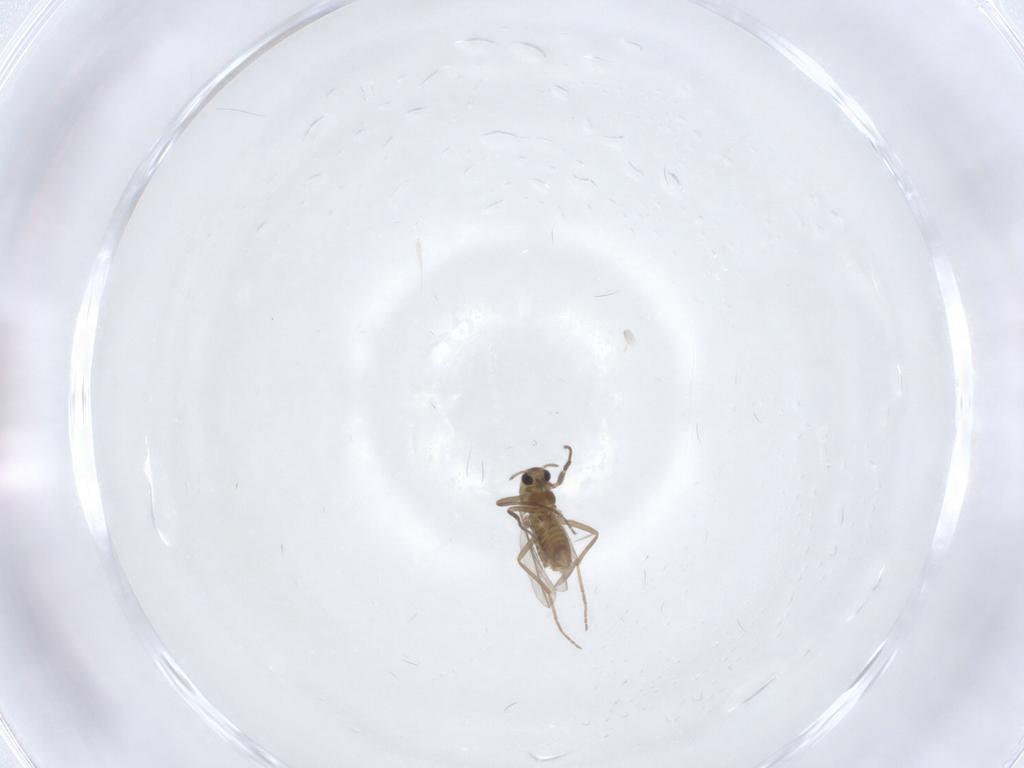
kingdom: Animalia
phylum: Arthropoda
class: Insecta
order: Diptera
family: Chironomidae
